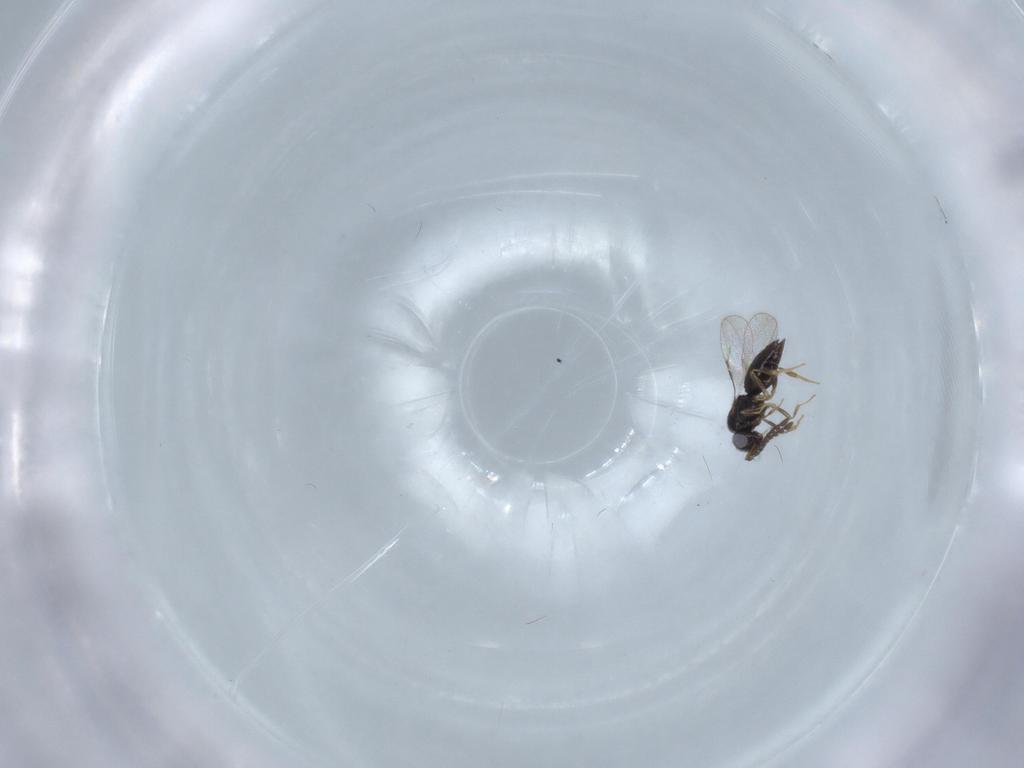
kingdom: Animalia
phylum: Arthropoda
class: Insecta
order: Hymenoptera
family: Ceraphronidae
